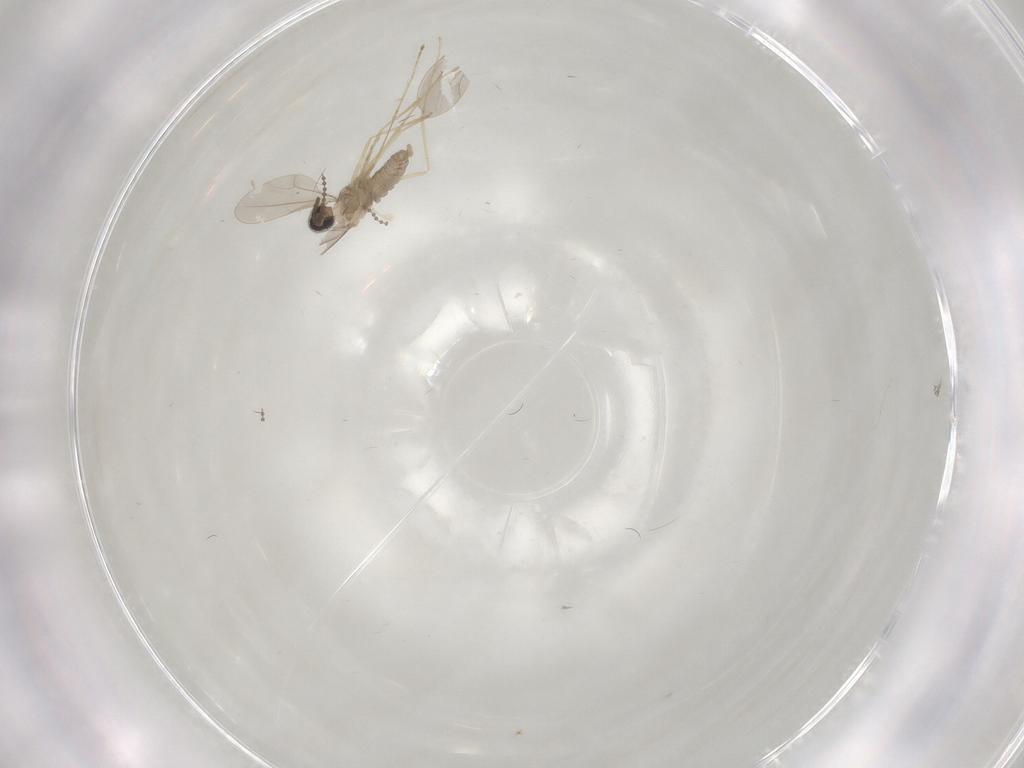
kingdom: Animalia
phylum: Arthropoda
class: Insecta
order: Diptera
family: Cecidomyiidae
